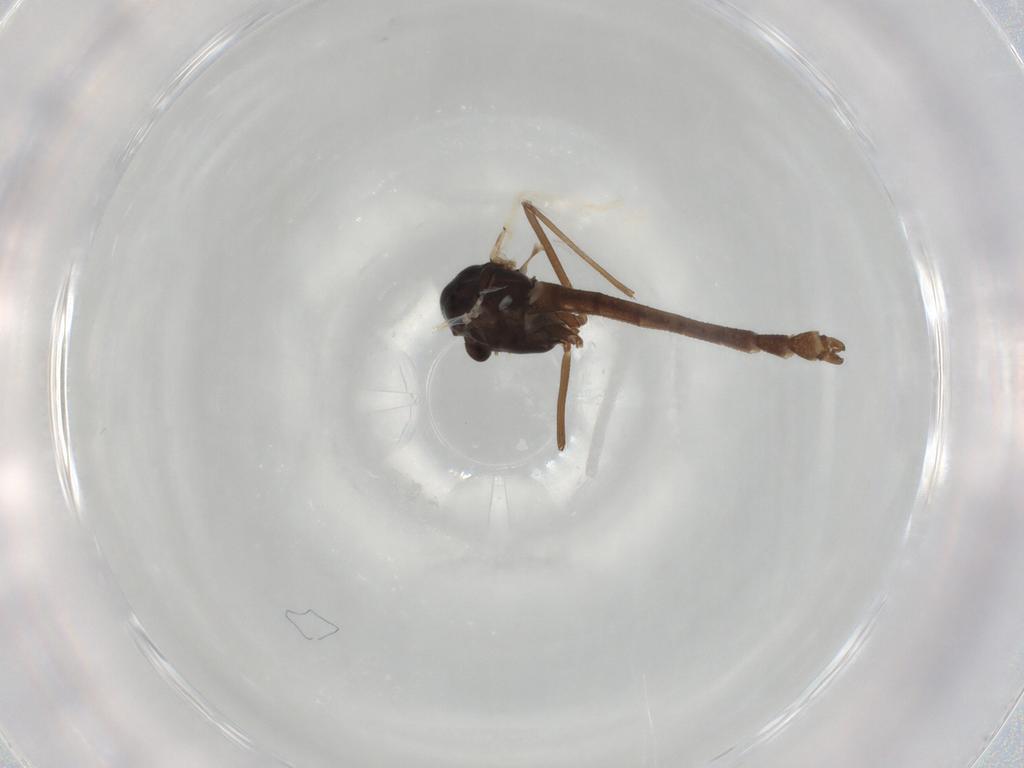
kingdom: Animalia
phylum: Arthropoda
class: Insecta
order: Diptera
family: Chironomidae
